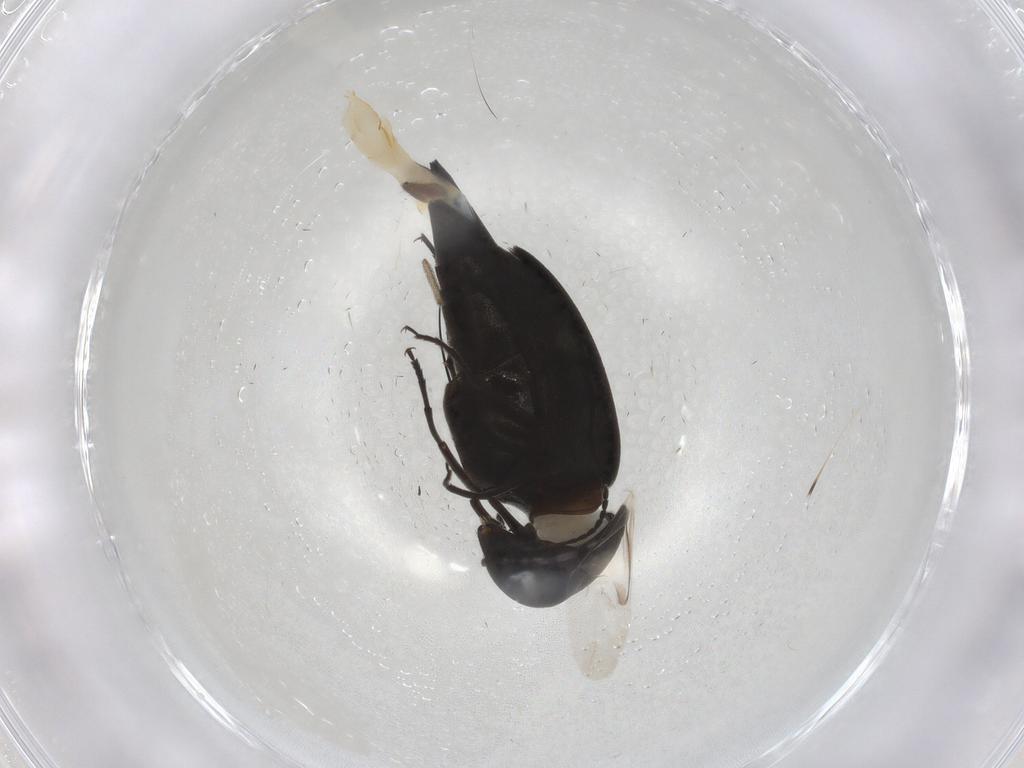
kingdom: Animalia
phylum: Arthropoda
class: Insecta
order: Coleoptera
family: Mordellidae
